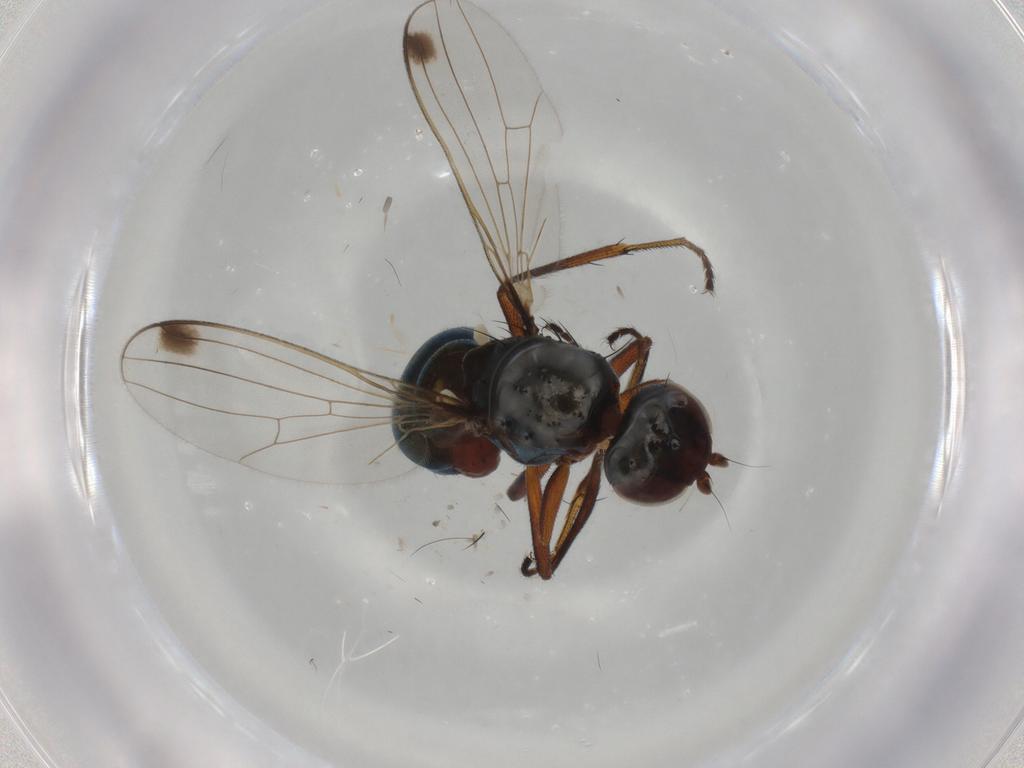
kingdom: Animalia
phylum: Arthropoda
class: Insecta
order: Diptera
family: Sepsidae
